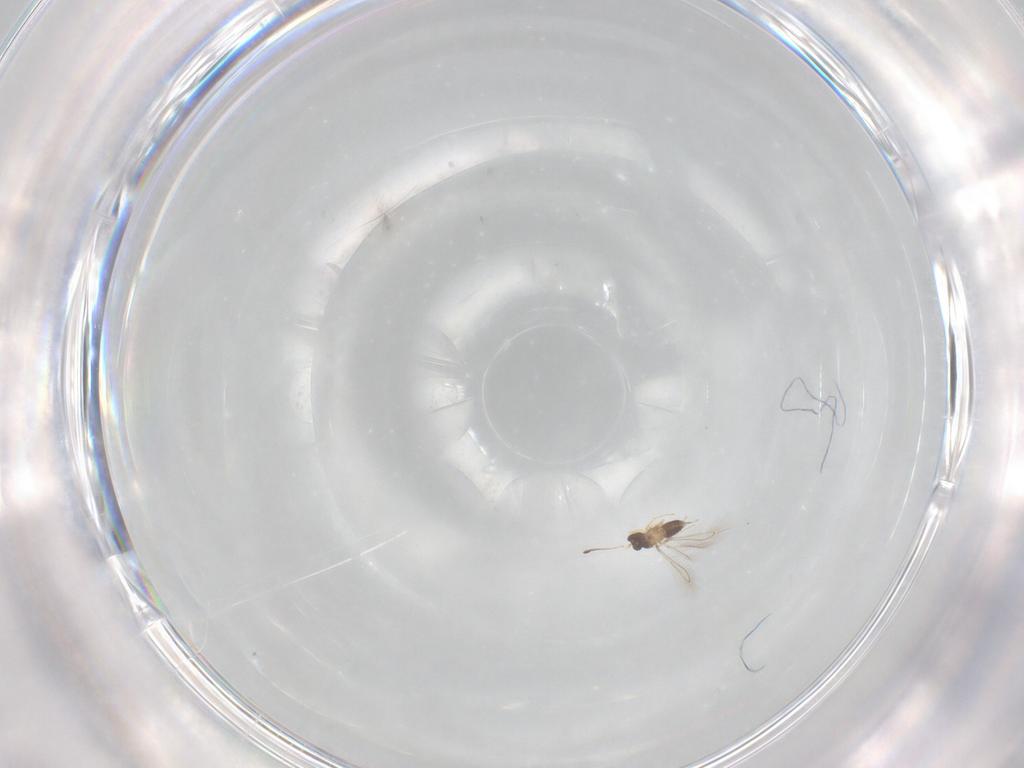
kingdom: Animalia
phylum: Arthropoda
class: Insecta
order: Hymenoptera
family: Eulophidae
